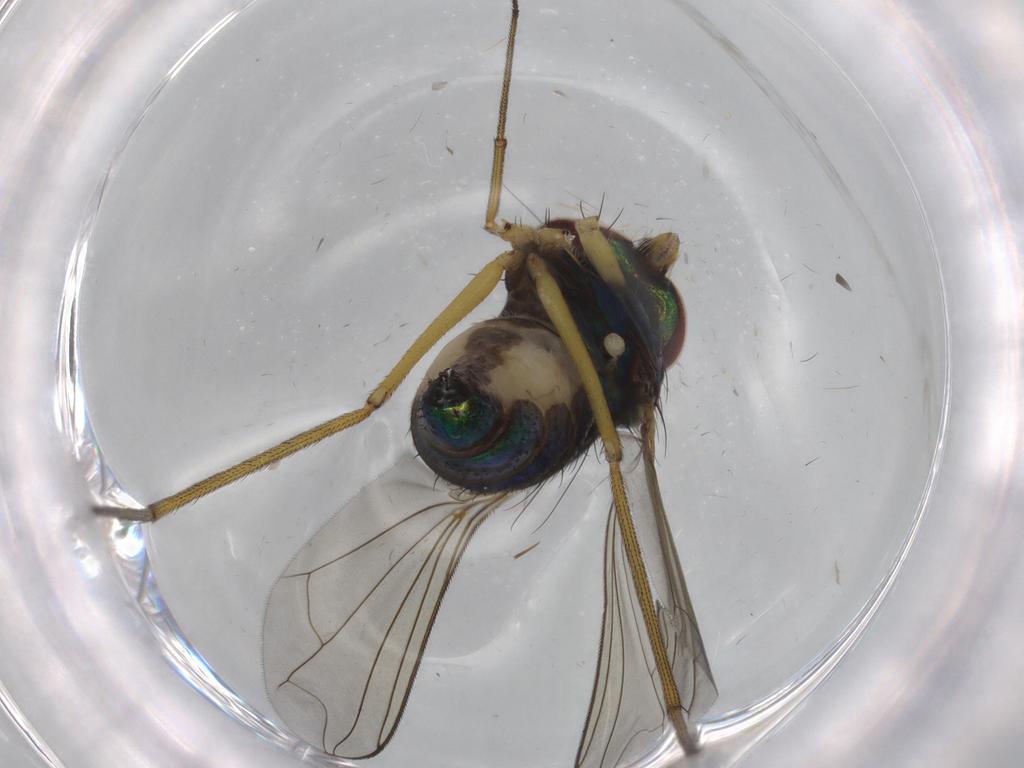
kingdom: Animalia
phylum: Arthropoda
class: Insecta
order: Diptera
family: Dolichopodidae
